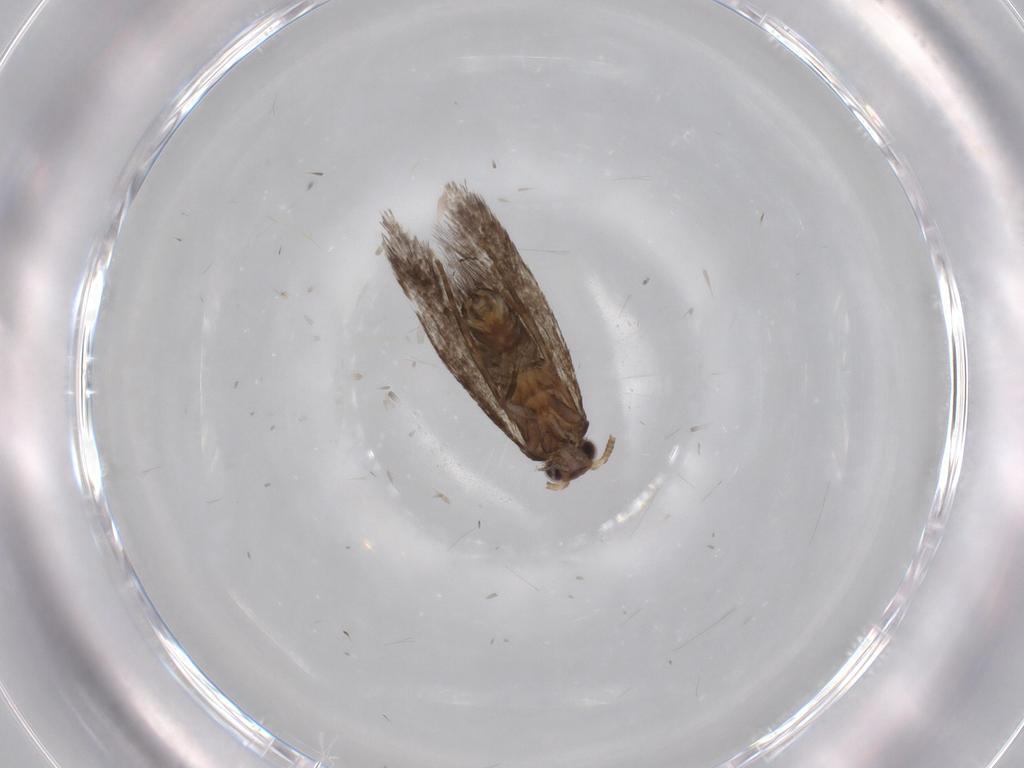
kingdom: Animalia
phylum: Arthropoda
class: Insecta
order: Lepidoptera
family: Tineidae
